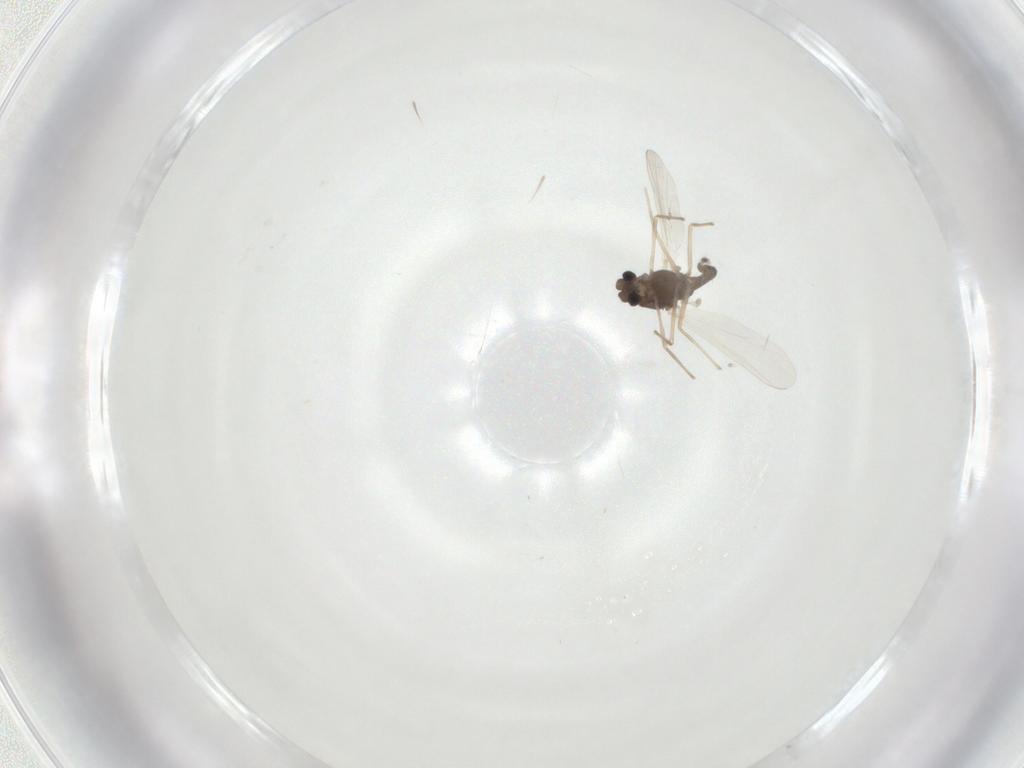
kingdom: Animalia
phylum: Arthropoda
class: Insecta
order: Diptera
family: Chironomidae
